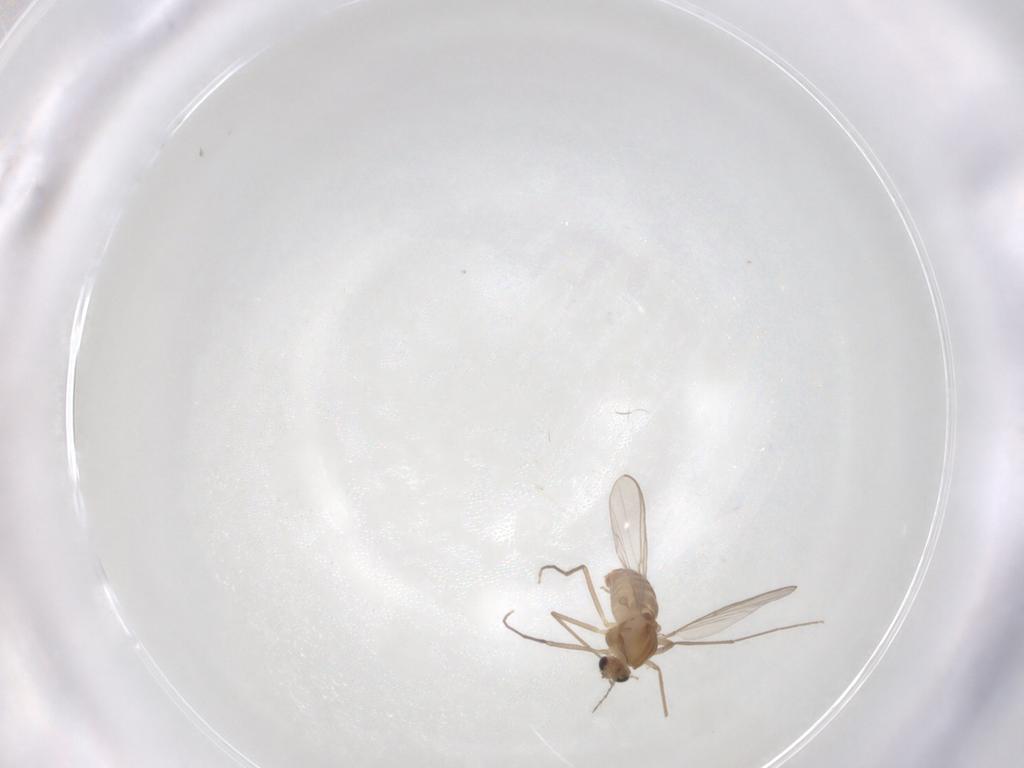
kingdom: Animalia
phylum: Arthropoda
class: Insecta
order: Diptera
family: Chironomidae
